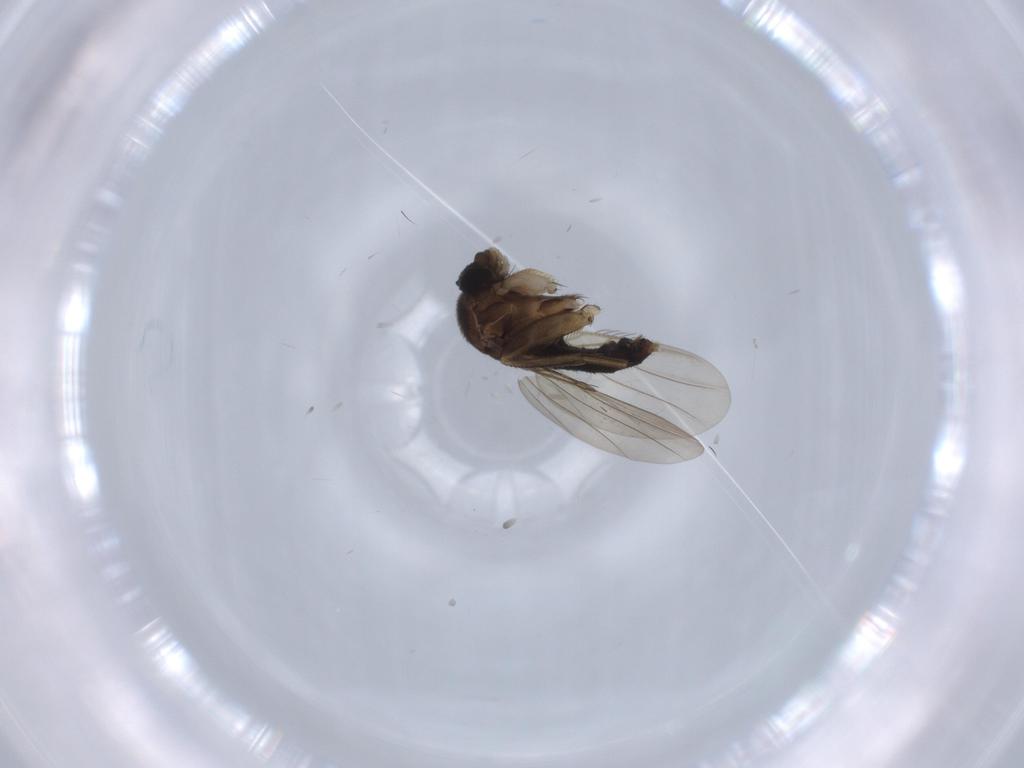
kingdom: Animalia
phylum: Arthropoda
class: Insecta
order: Diptera
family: Phoridae
